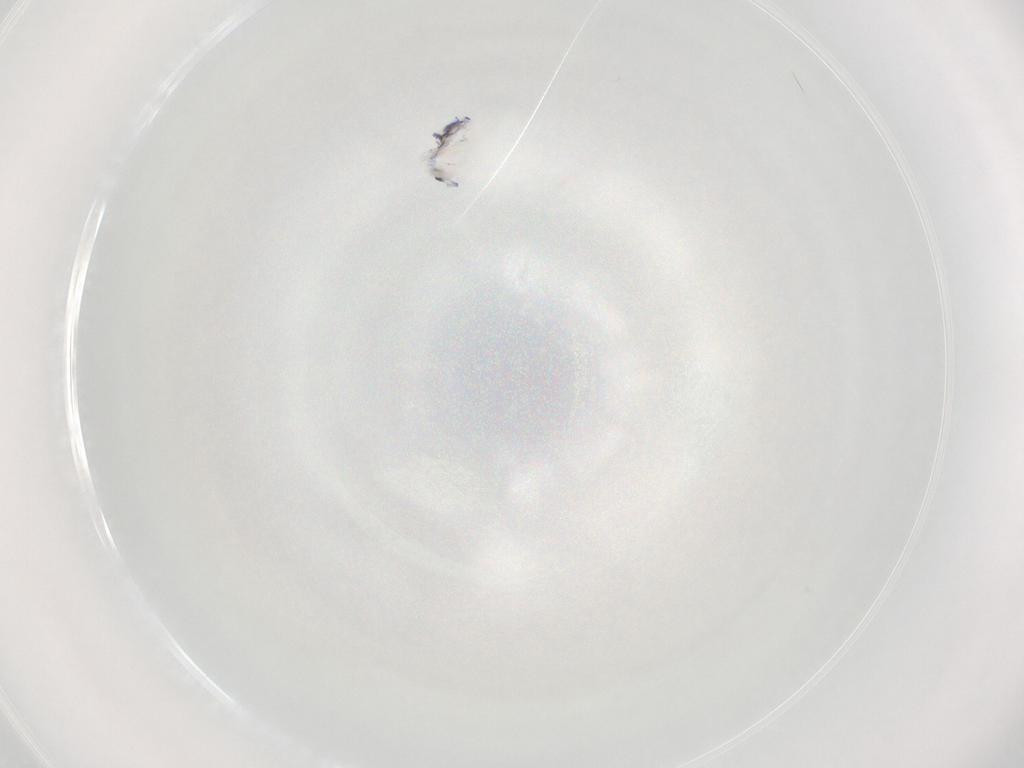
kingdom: Animalia
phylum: Arthropoda
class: Collembola
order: Entomobryomorpha
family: Entomobryidae
